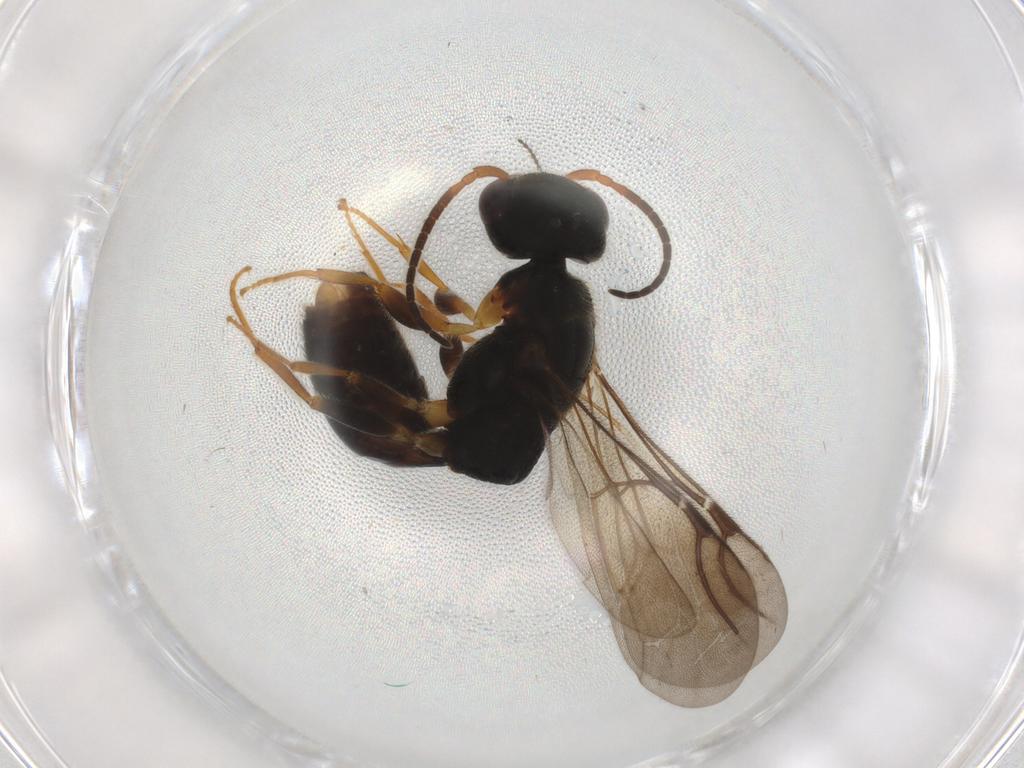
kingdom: Animalia
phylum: Arthropoda
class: Insecta
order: Hymenoptera
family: Bethylidae
